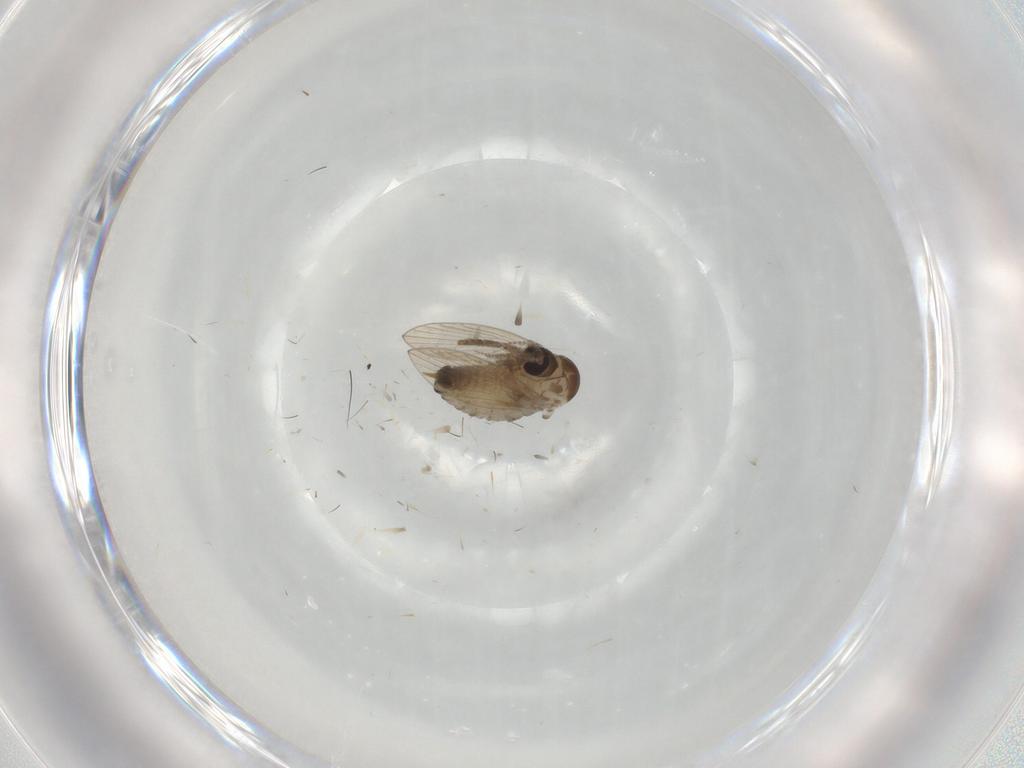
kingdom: Animalia
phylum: Arthropoda
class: Insecta
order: Diptera
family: Psychodidae
